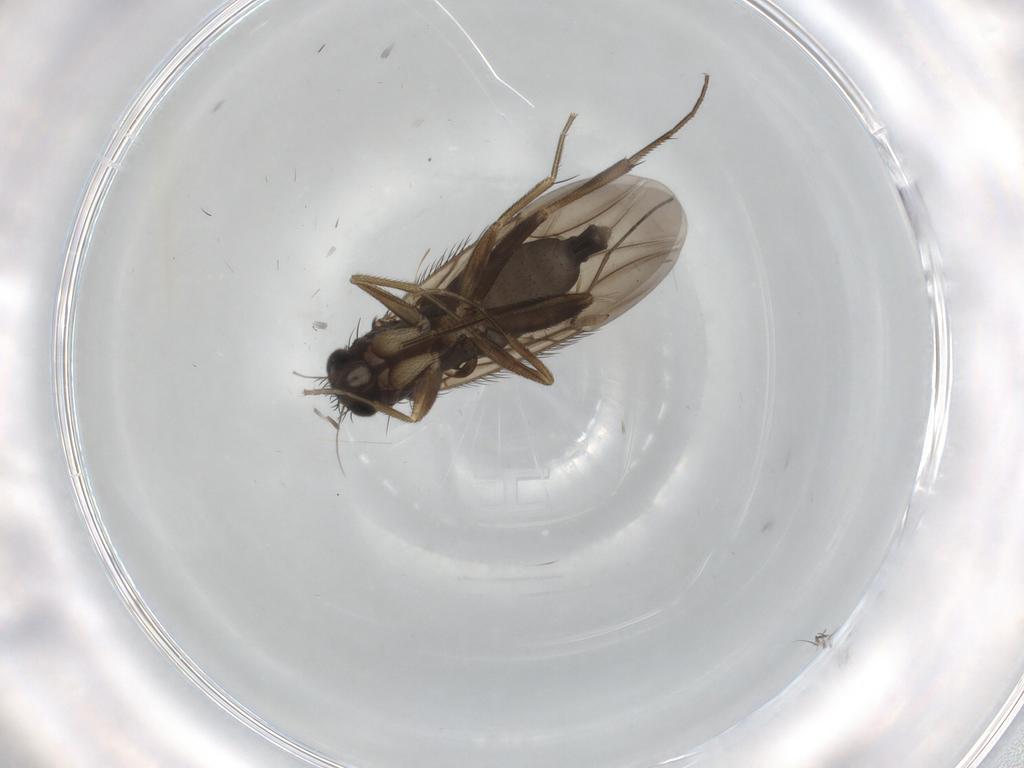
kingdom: Animalia
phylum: Arthropoda
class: Insecta
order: Diptera
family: Phoridae
